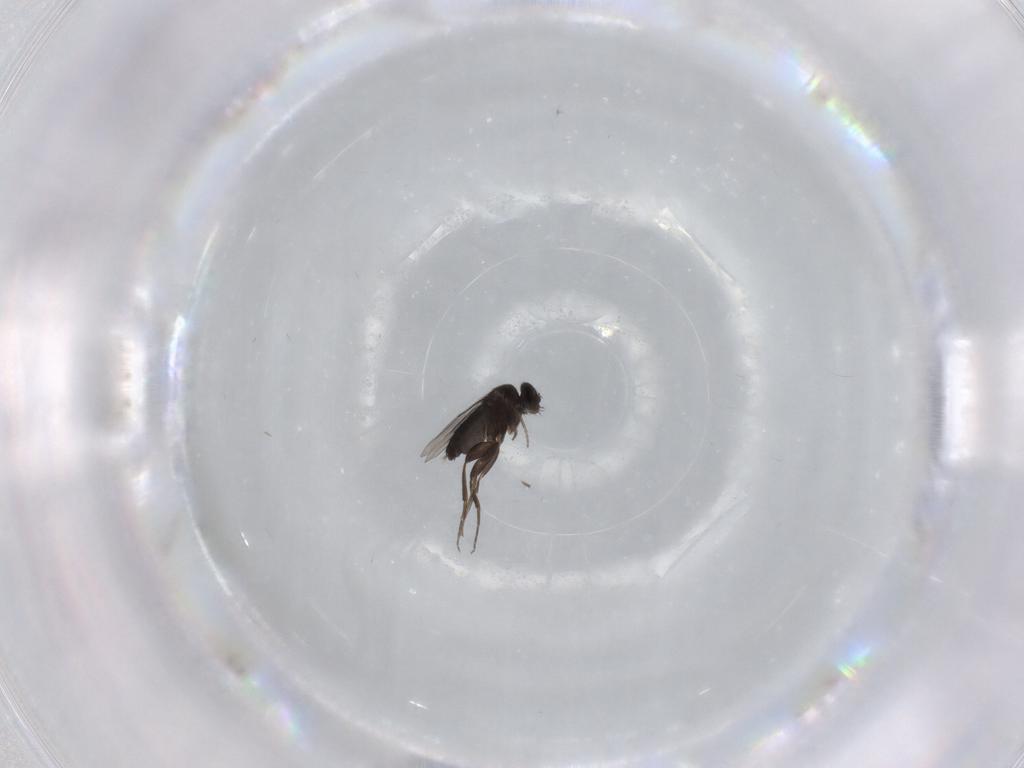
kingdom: Animalia
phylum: Arthropoda
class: Insecta
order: Diptera
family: Phoridae
